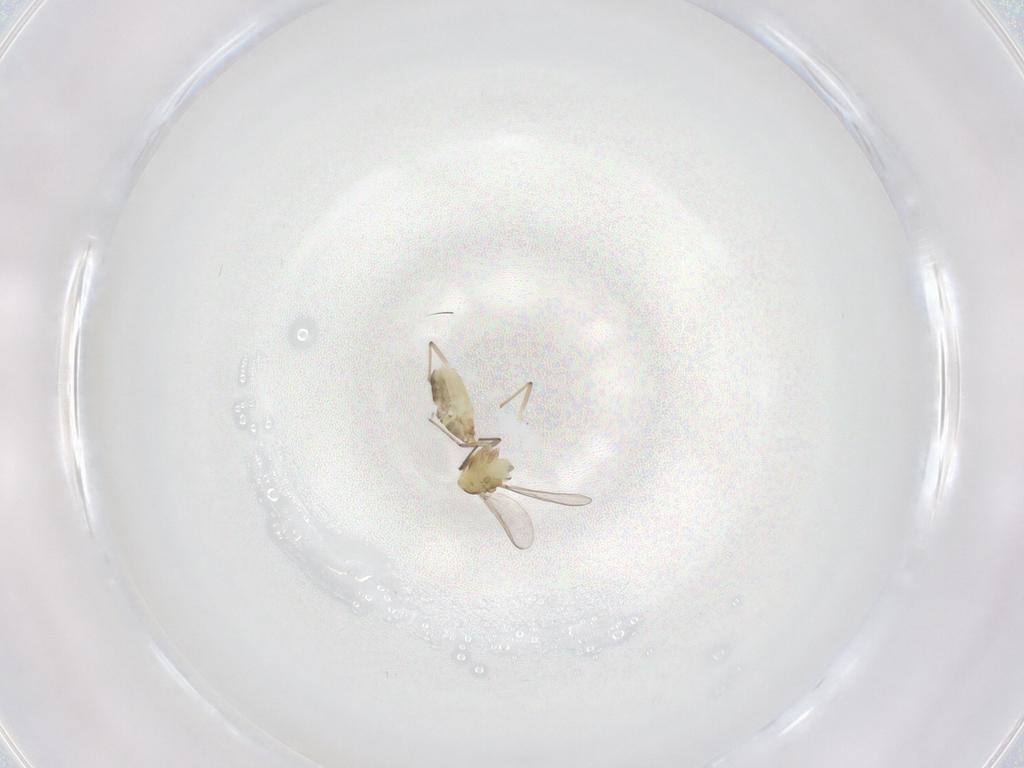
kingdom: Animalia
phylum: Arthropoda
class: Insecta
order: Diptera
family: Chironomidae
